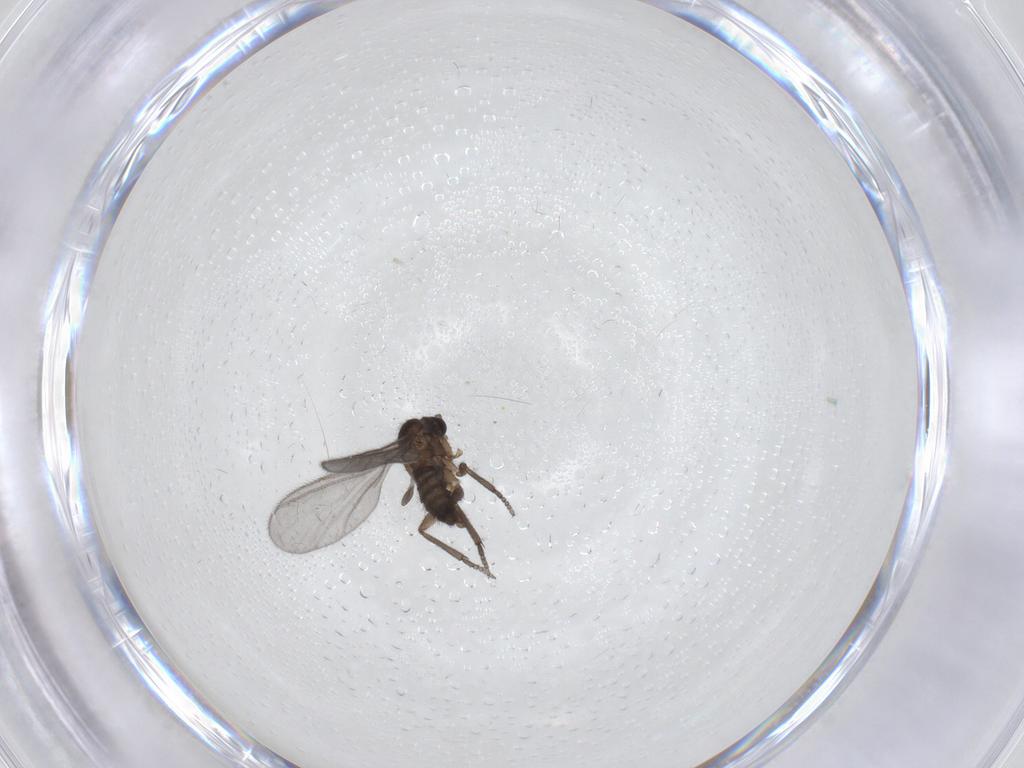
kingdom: Animalia
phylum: Arthropoda
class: Insecta
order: Diptera
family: Sciaridae
